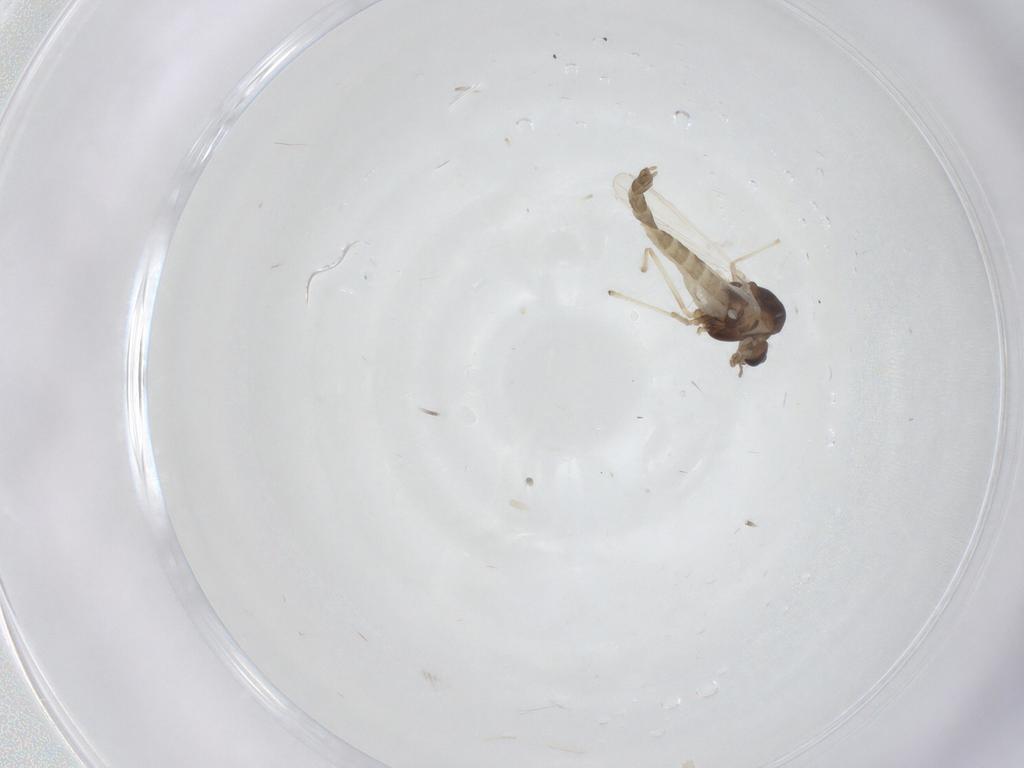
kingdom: Animalia
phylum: Arthropoda
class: Insecta
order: Diptera
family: Chironomidae
